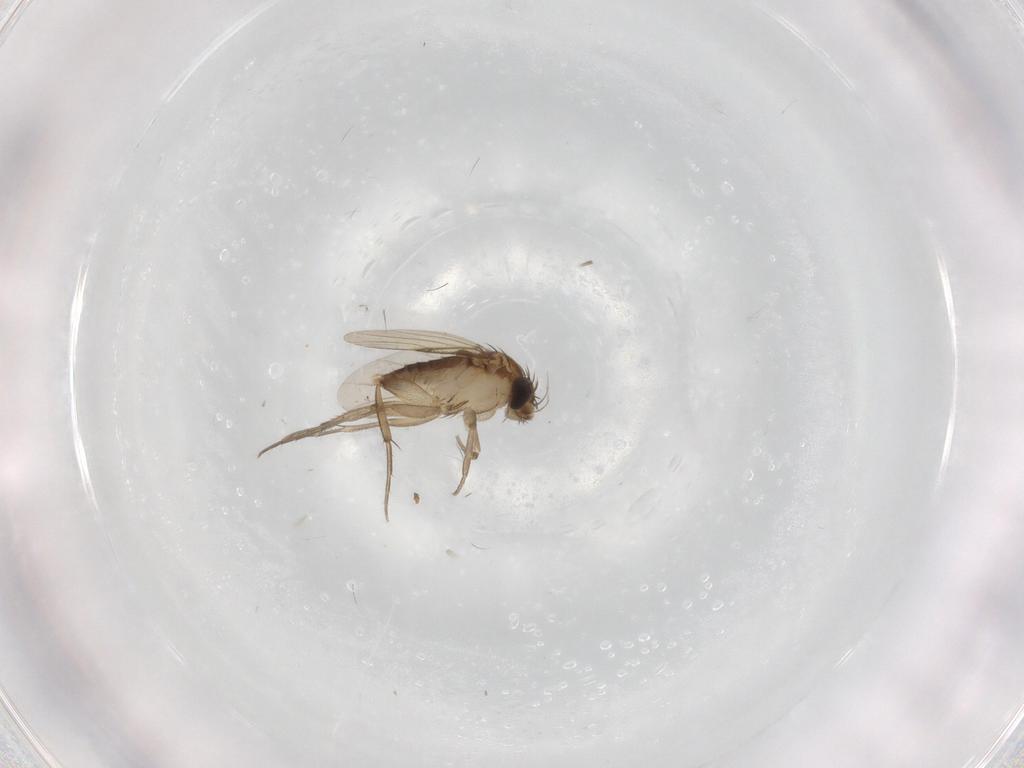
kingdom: Animalia
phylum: Arthropoda
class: Insecta
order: Diptera
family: Phoridae
